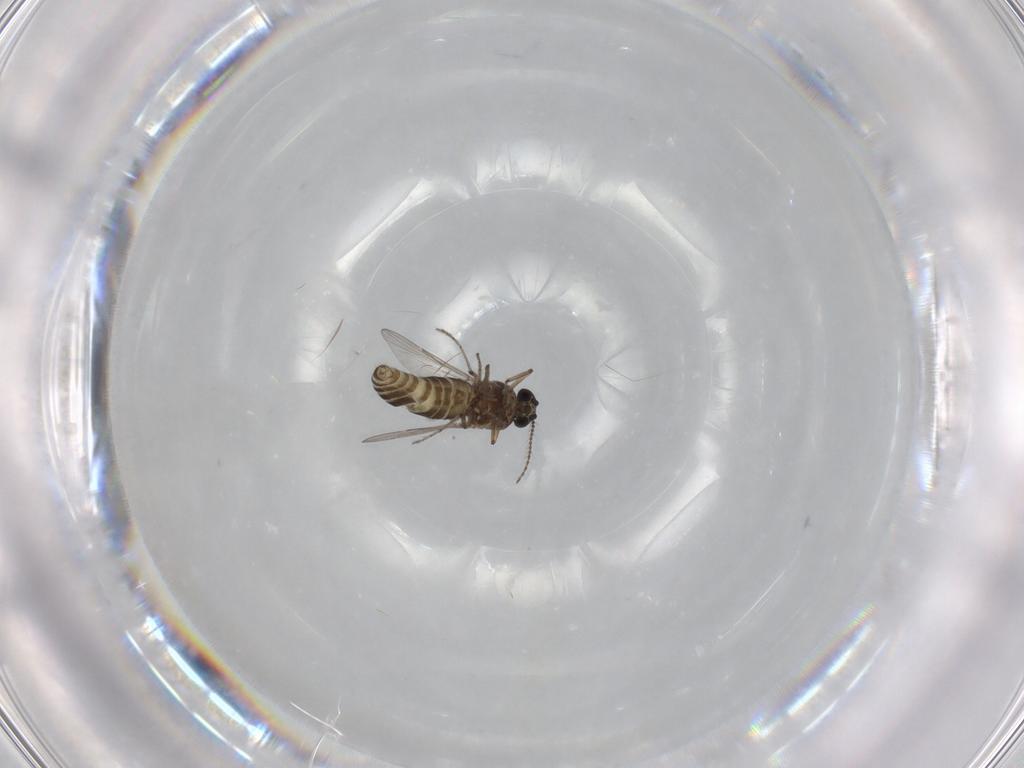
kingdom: Animalia
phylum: Arthropoda
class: Insecta
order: Diptera
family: Ceratopogonidae
